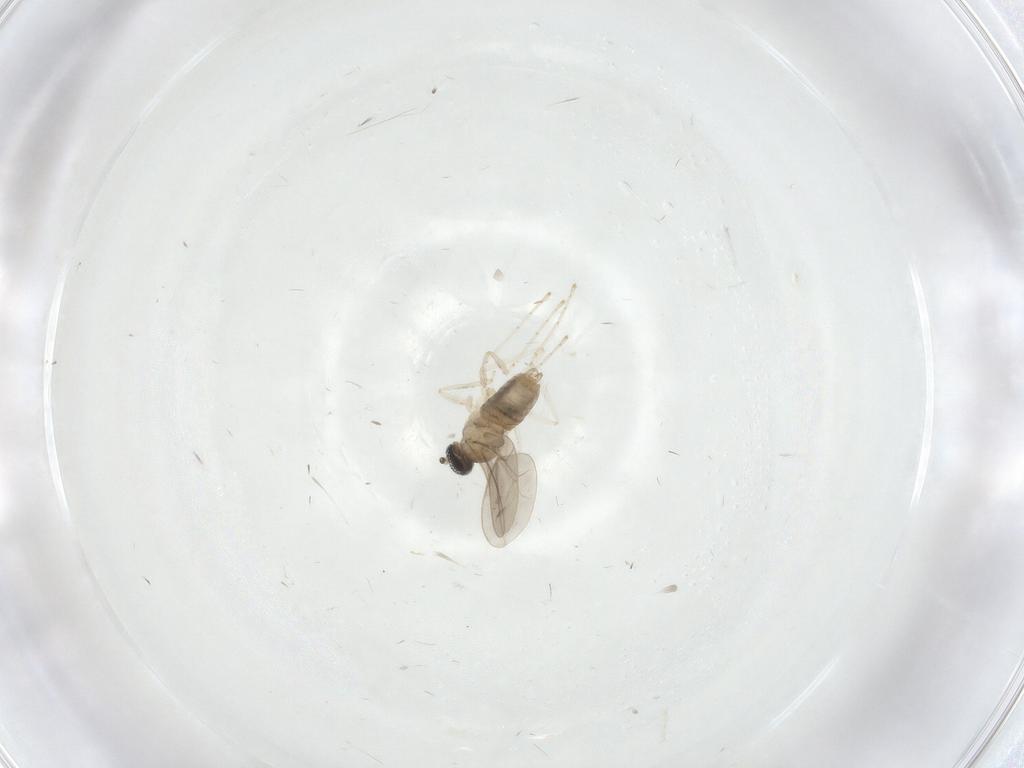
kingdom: Animalia
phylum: Arthropoda
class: Insecta
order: Diptera
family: Cecidomyiidae
